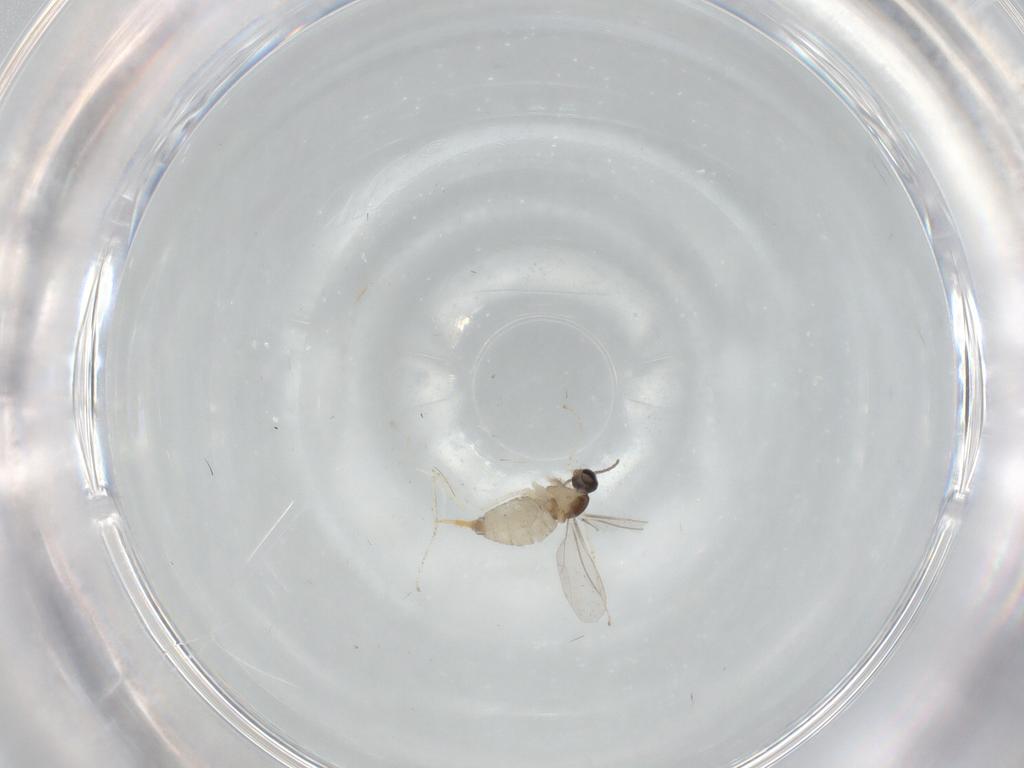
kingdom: Animalia
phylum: Arthropoda
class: Insecta
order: Diptera
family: Cecidomyiidae
